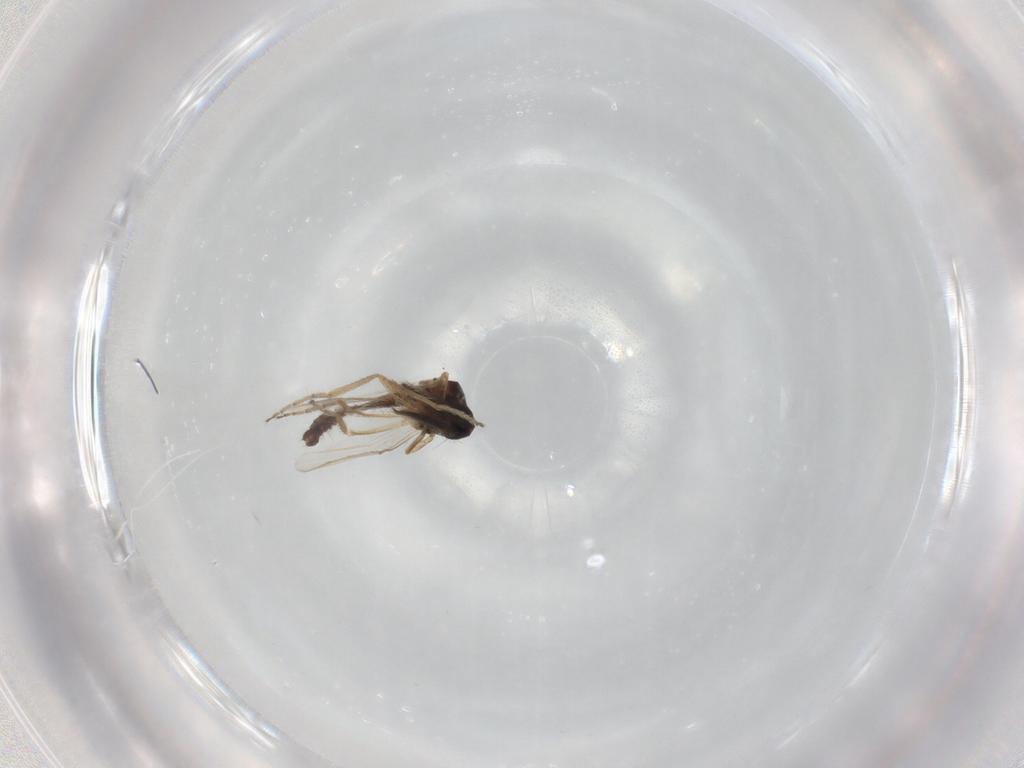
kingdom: Animalia
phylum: Arthropoda
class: Insecta
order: Diptera
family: Ceratopogonidae
